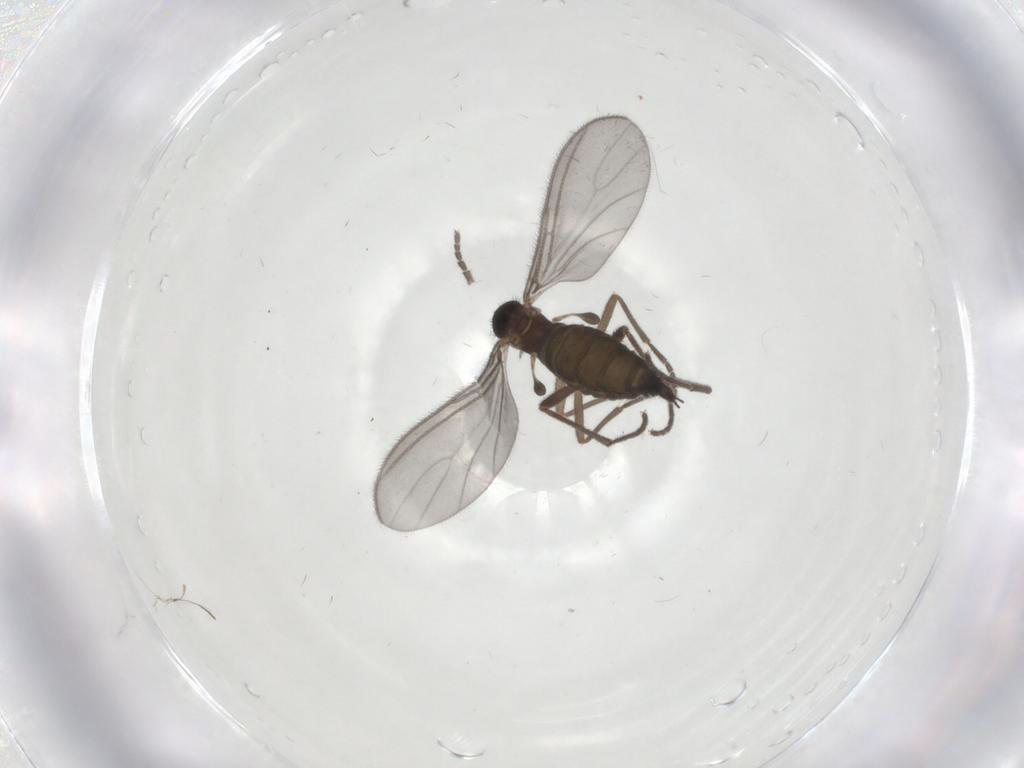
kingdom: Animalia
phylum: Arthropoda
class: Insecta
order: Diptera
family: Sciaridae
